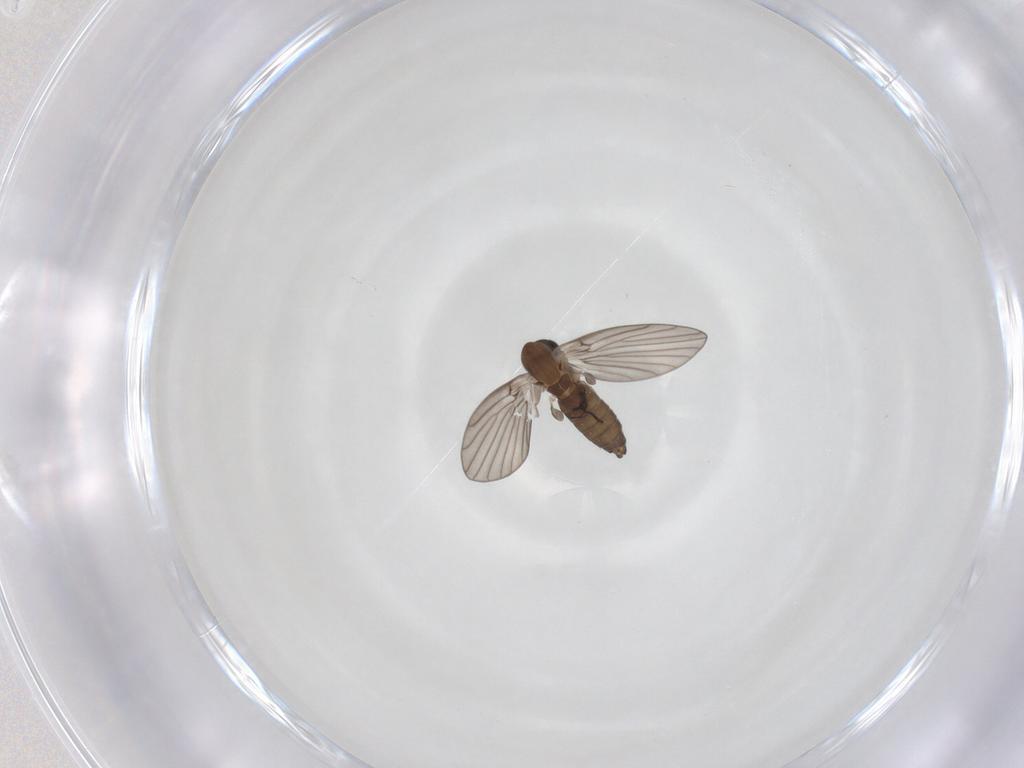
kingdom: Animalia
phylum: Arthropoda
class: Insecta
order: Diptera
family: Psychodidae
